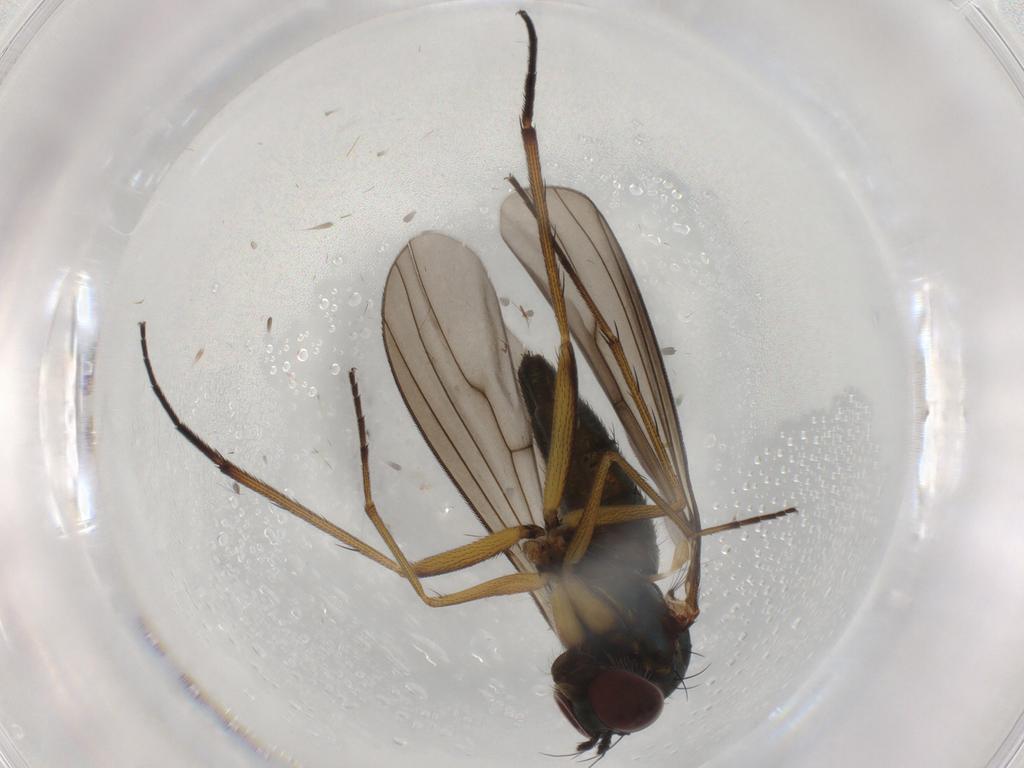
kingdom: Animalia
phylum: Arthropoda
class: Insecta
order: Diptera
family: Dolichopodidae
